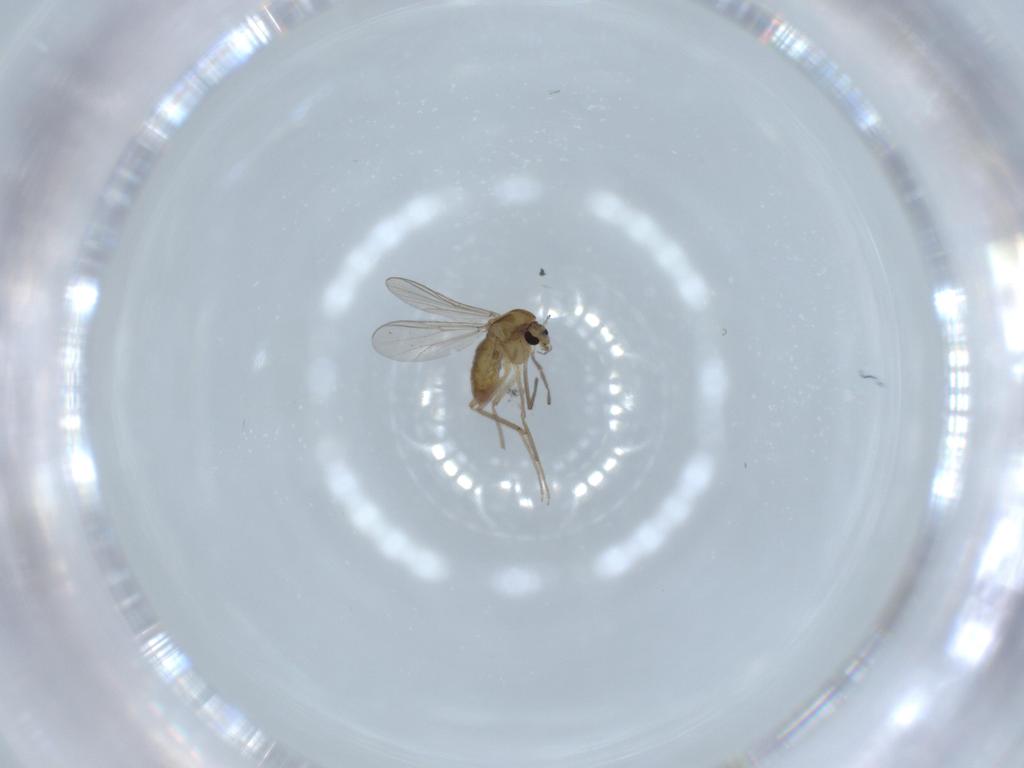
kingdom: Animalia
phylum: Arthropoda
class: Insecta
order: Diptera
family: Chironomidae
